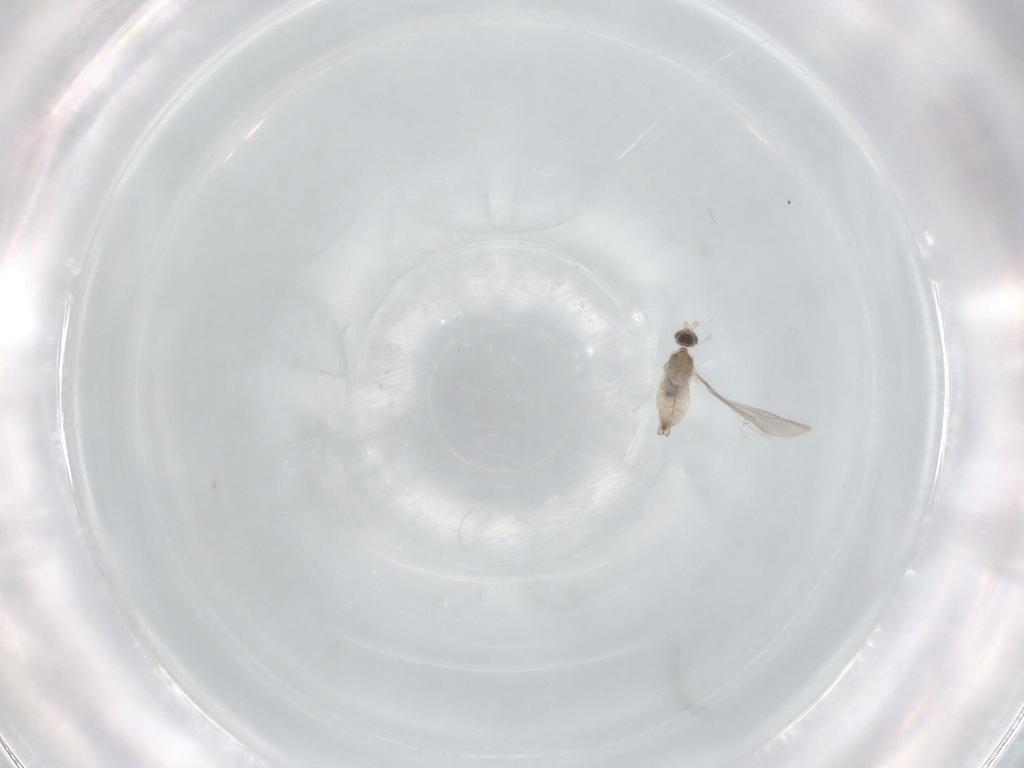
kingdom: Animalia
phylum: Arthropoda
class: Insecta
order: Diptera
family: Cecidomyiidae
